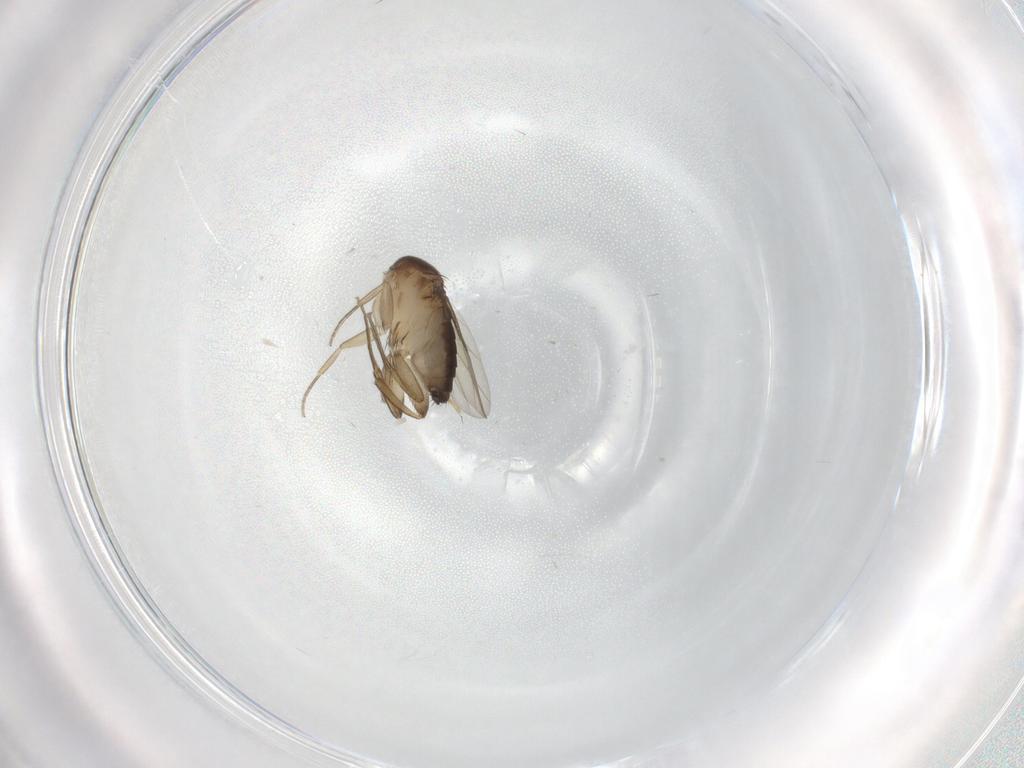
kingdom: Animalia
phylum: Arthropoda
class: Insecta
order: Diptera
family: Phoridae
